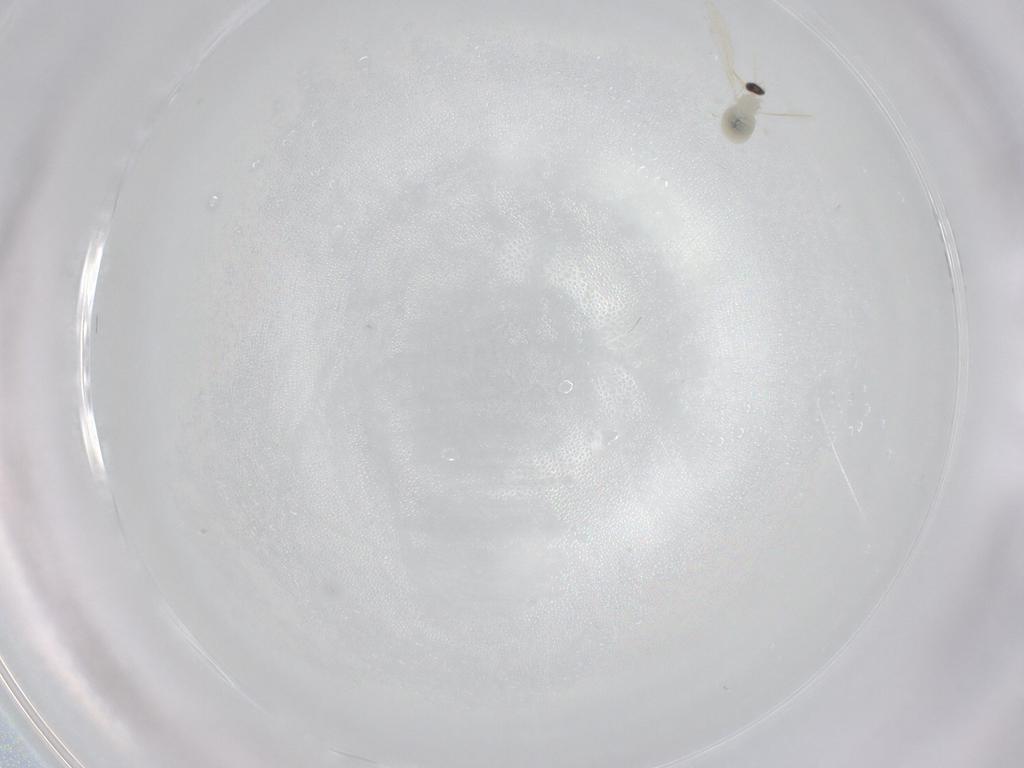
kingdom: Animalia
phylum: Arthropoda
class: Insecta
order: Diptera
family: Cecidomyiidae
